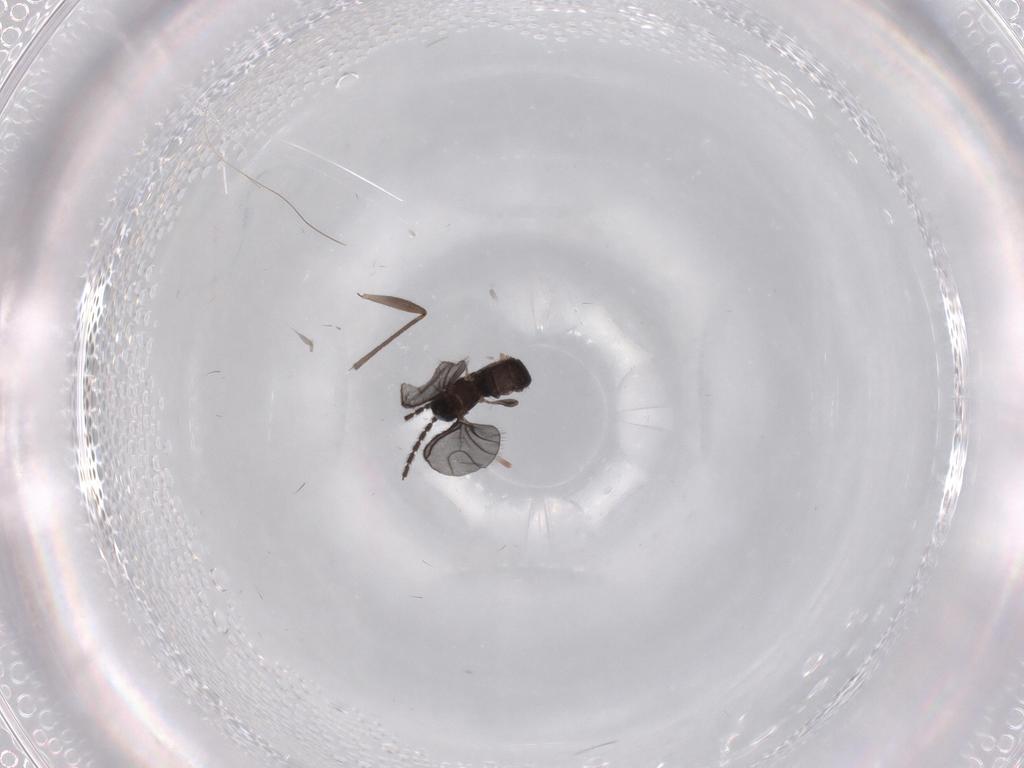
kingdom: Animalia
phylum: Arthropoda
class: Insecta
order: Diptera
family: Sciaridae
